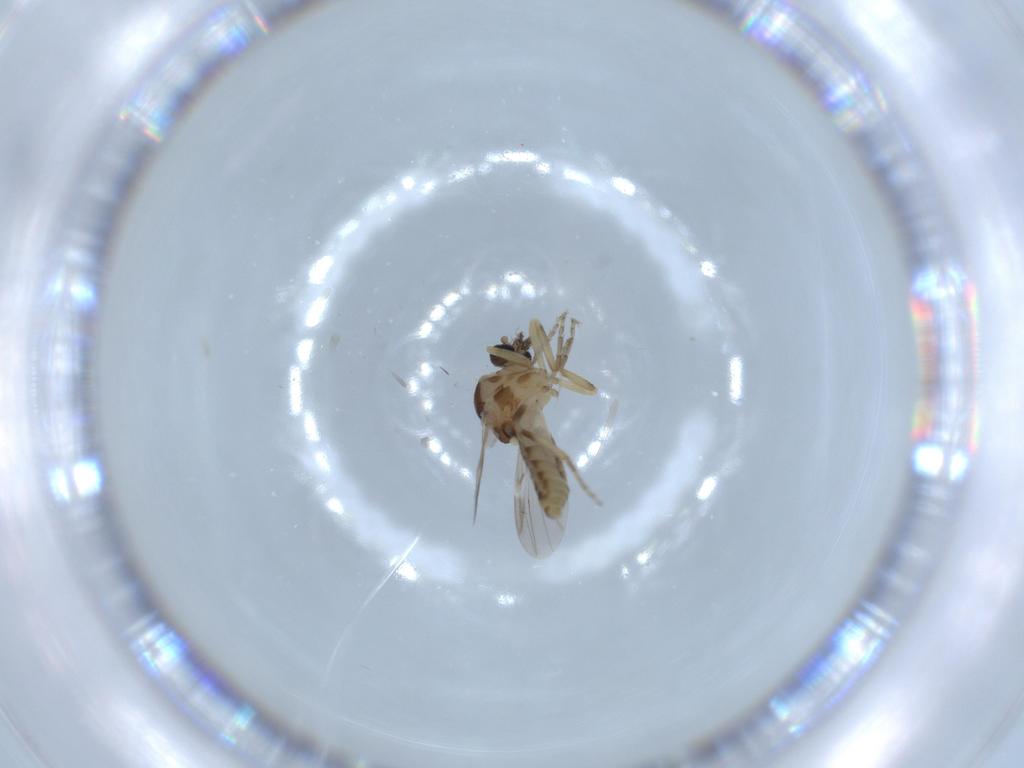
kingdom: Animalia
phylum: Arthropoda
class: Insecta
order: Diptera
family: Ceratopogonidae
